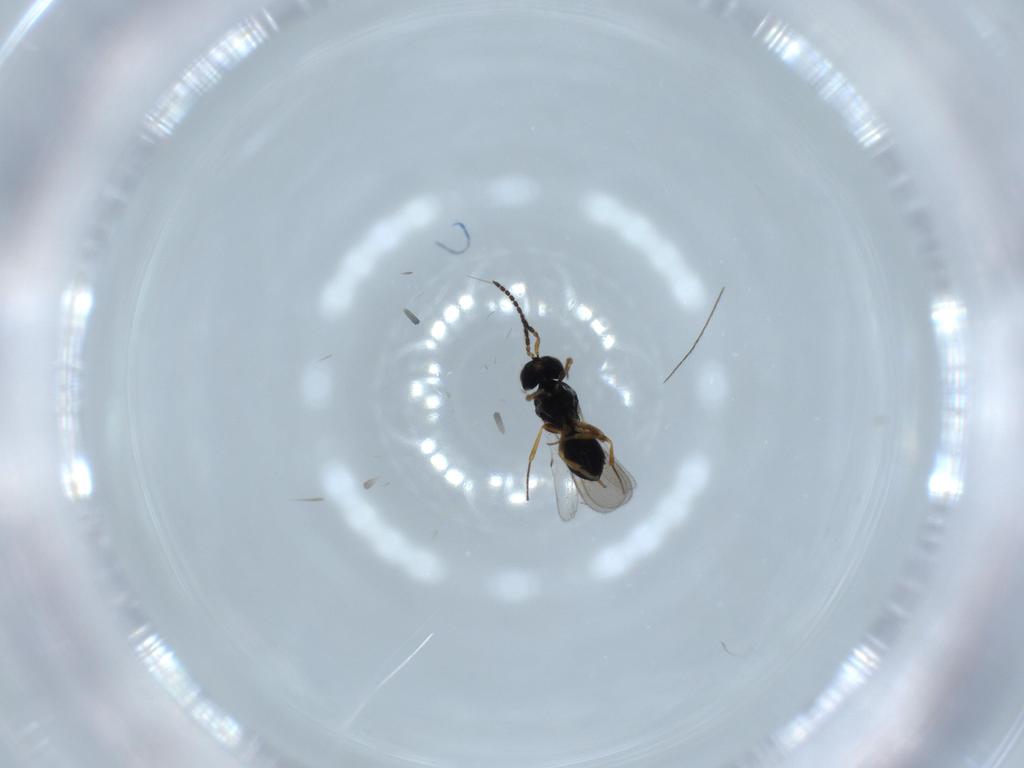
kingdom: Animalia
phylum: Arthropoda
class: Insecta
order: Hymenoptera
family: Scelionidae
